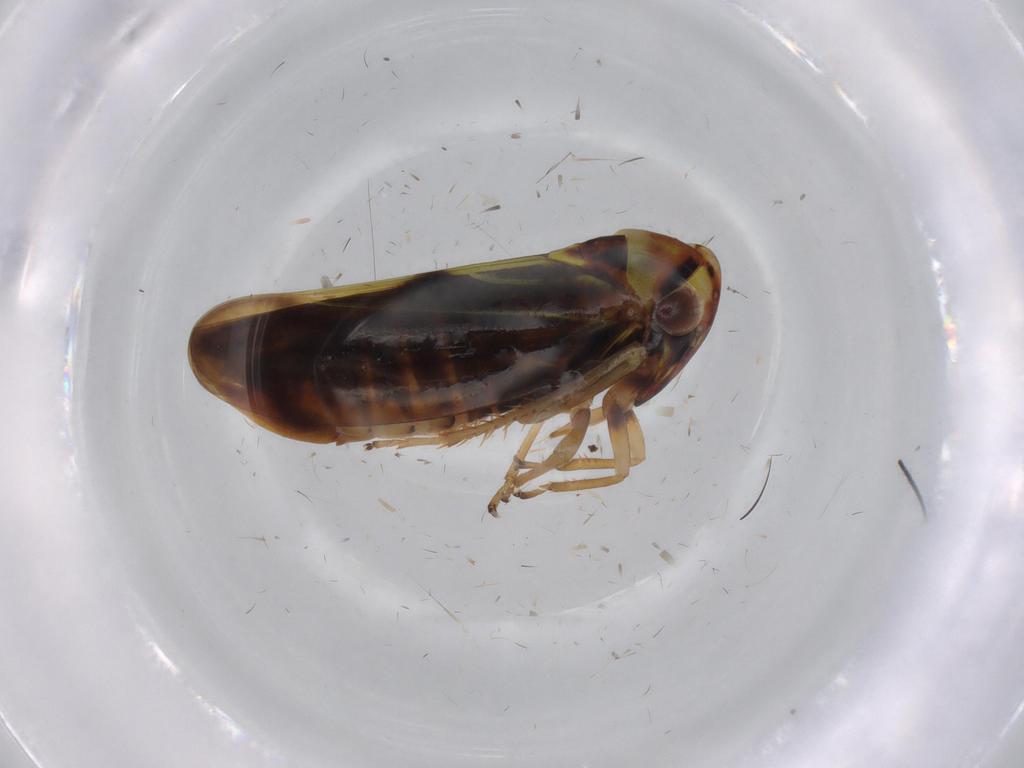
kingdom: Animalia
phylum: Arthropoda
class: Insecta
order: Hemiptera
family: Cicadellidae
